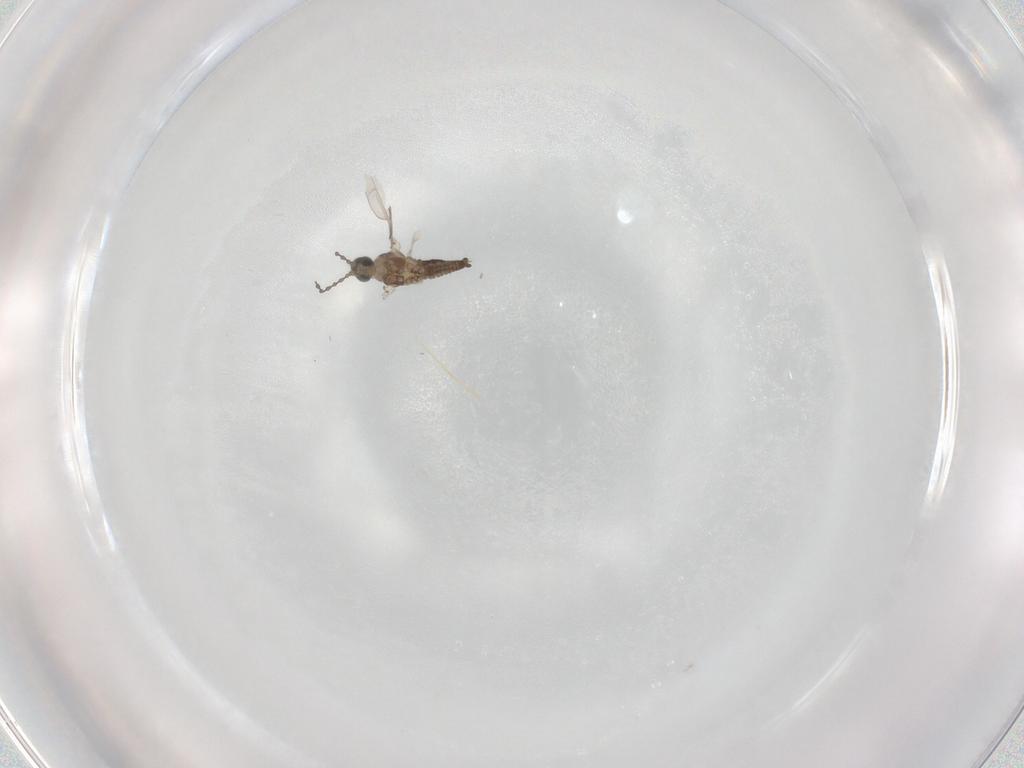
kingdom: Animalia
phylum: Arthropoda
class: Insecta
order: Diptera
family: Cecidomyiidae
